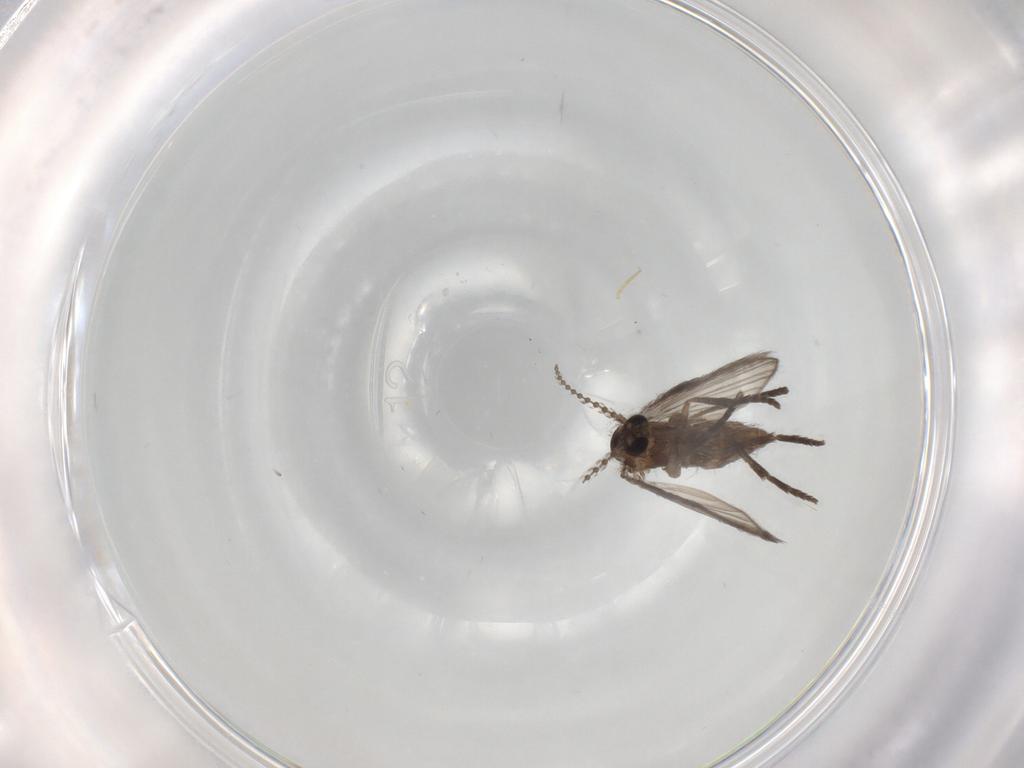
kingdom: Animalia
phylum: Arthropoda
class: Insecta
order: Diptera
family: Psychodidae
